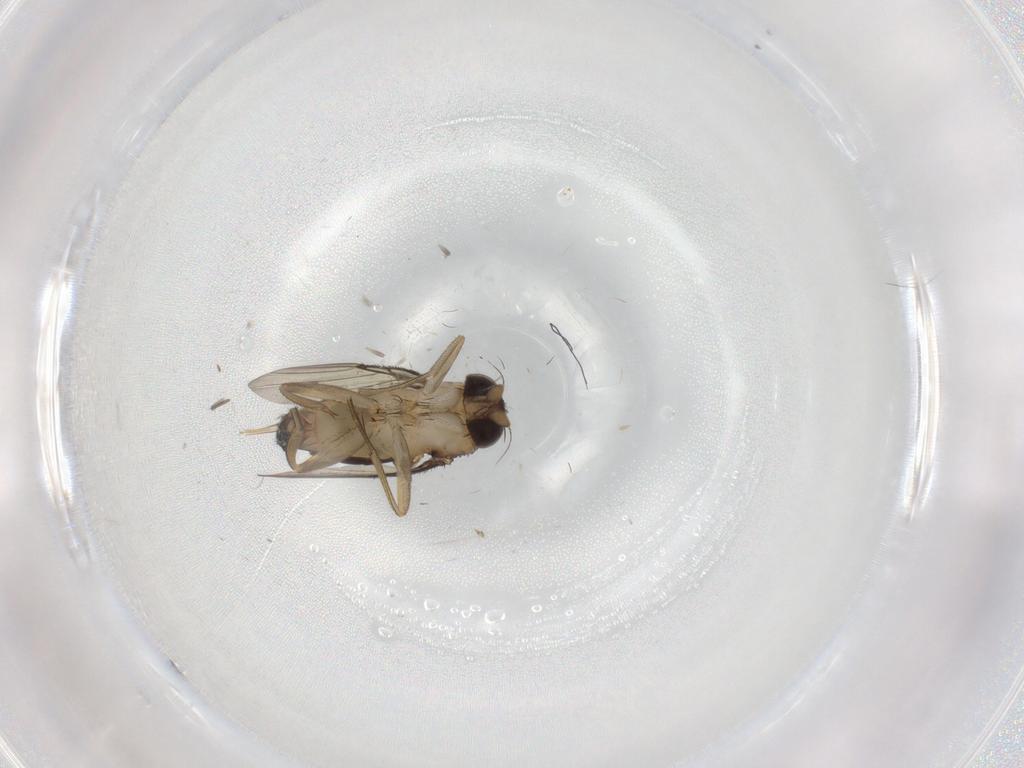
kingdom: Animalia
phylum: Arthropoda
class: Insecta
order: Diptera
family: Phoridae
